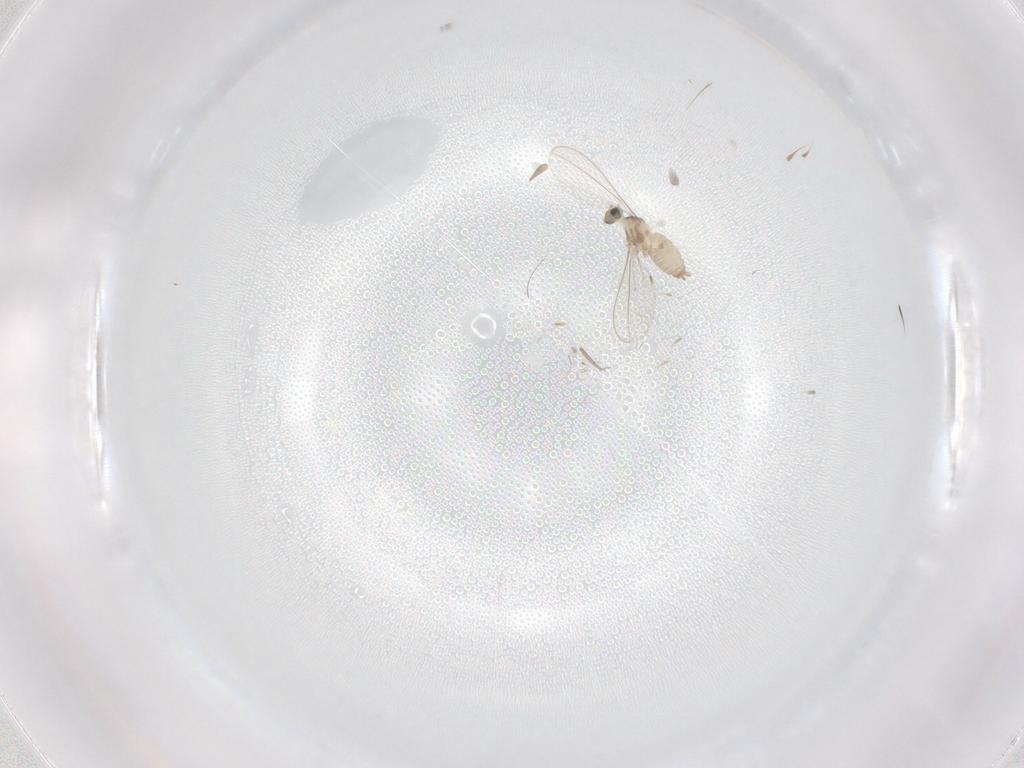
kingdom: Animalia
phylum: Arthropoda
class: Insecta
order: Diptera
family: Cecidomyiidae
